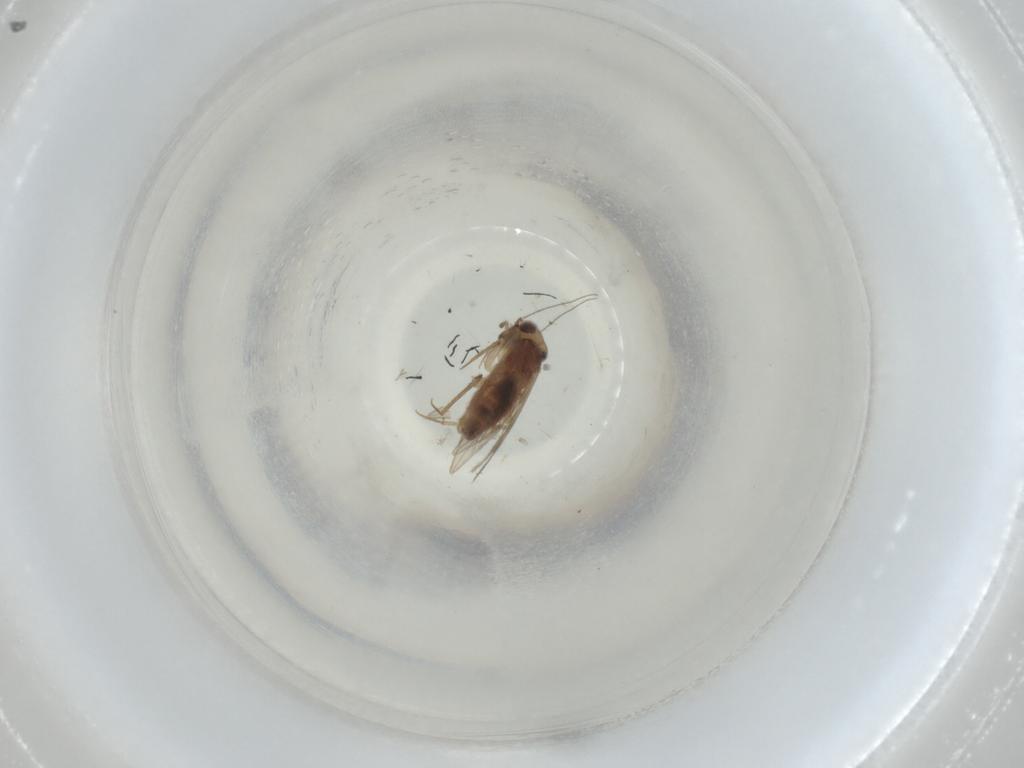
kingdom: Animalia
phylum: Arthropoda
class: Insecta
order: Psocodea
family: Lepidopsocidae
